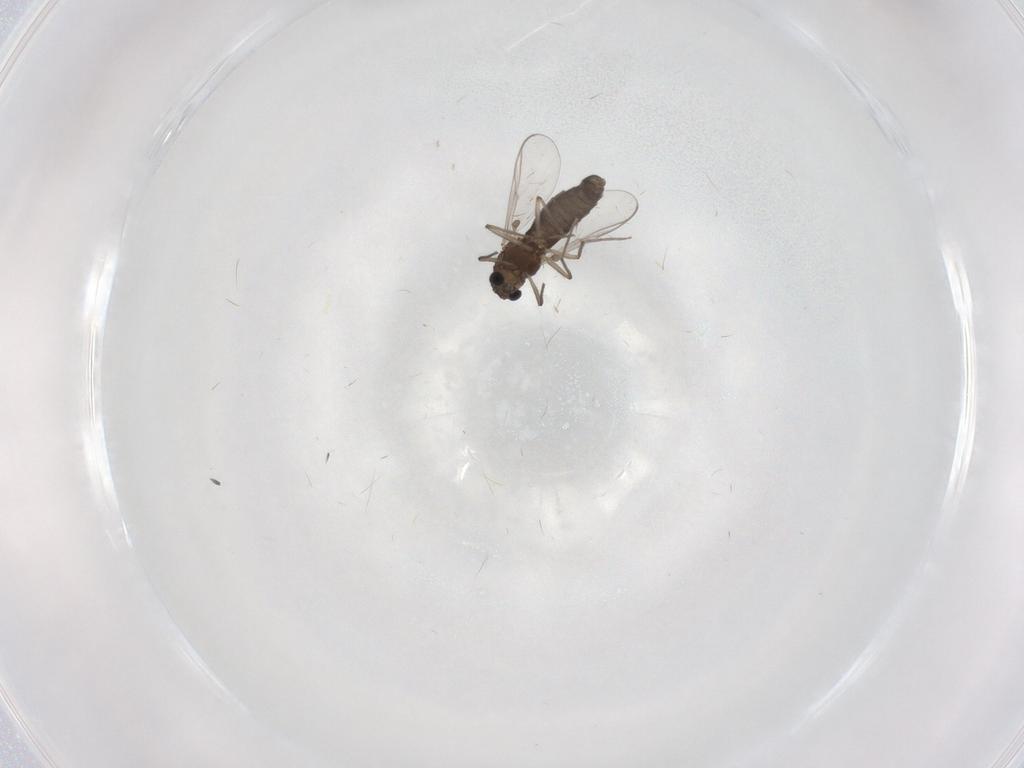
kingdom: Animalia
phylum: Arthropoda
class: Insecta
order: Diptera
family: Chironomidae
